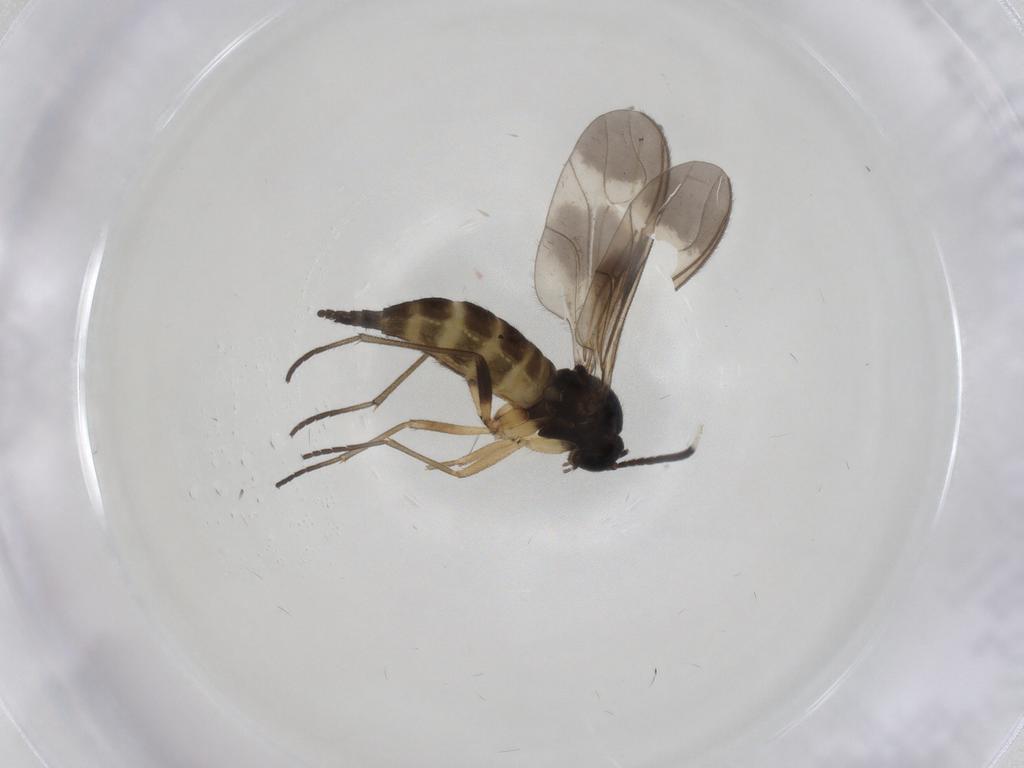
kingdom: Animalia
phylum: Arthropoda
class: Insecta
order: Diptera
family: Sciaridae
